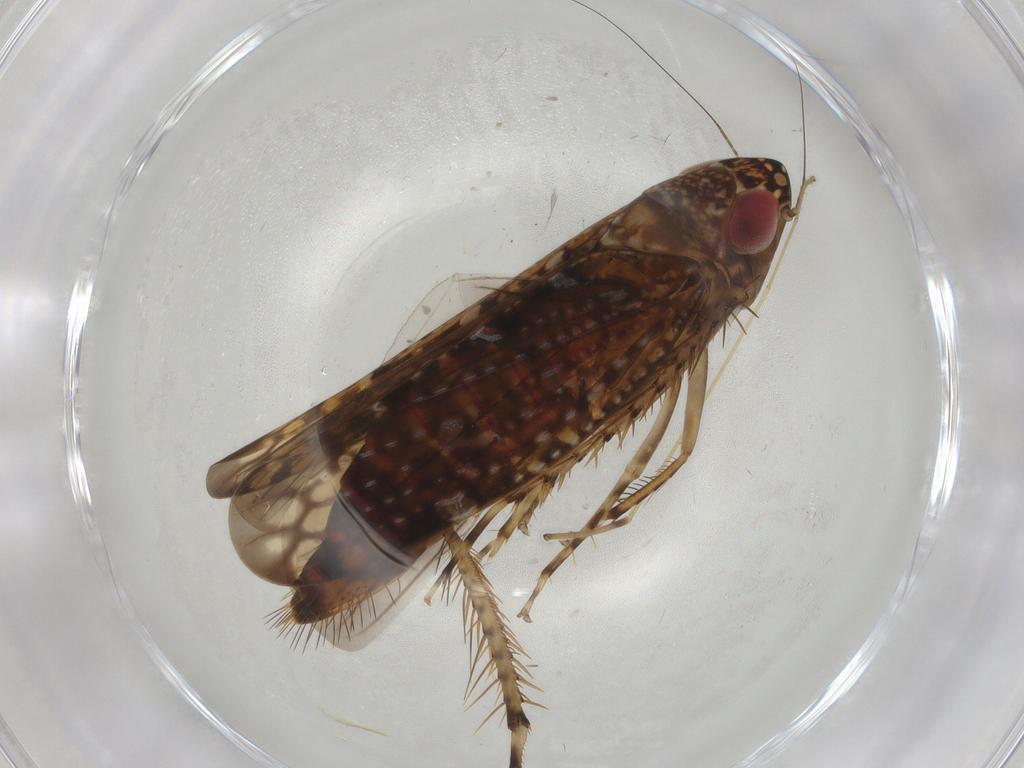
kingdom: Animalia
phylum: Arthropoda
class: Insecta
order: Hemiptera
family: Cicadellidae
